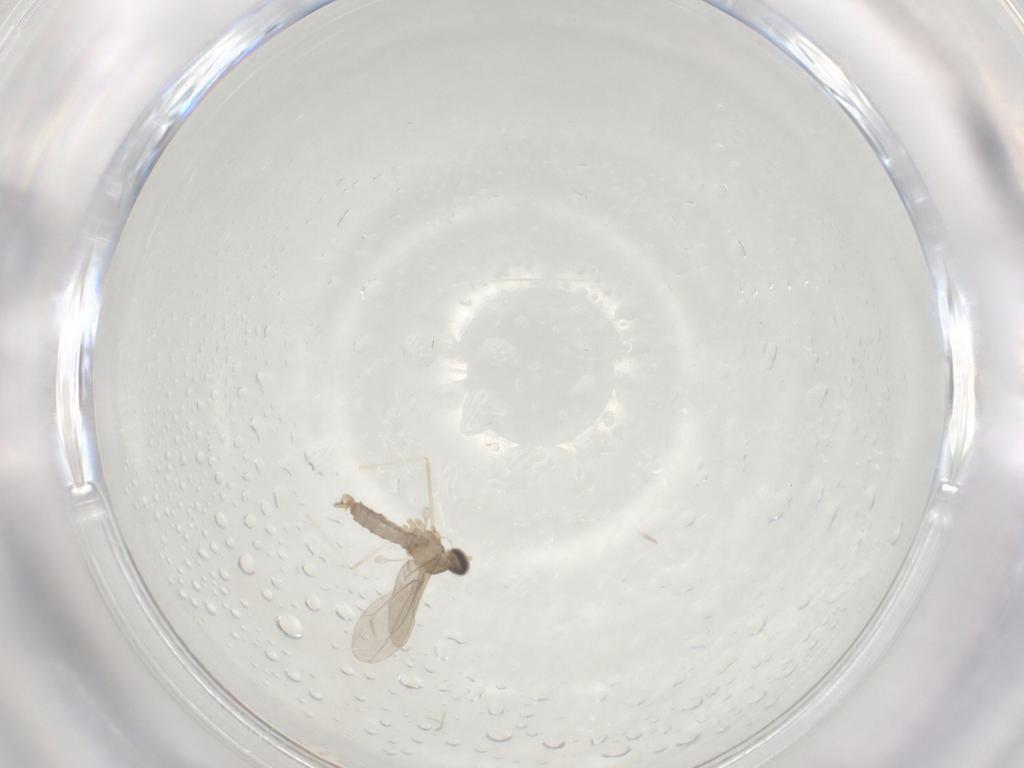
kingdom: Animalia
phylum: Arthropoda
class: Insecta
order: Diptera
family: Cecidomyiidae
